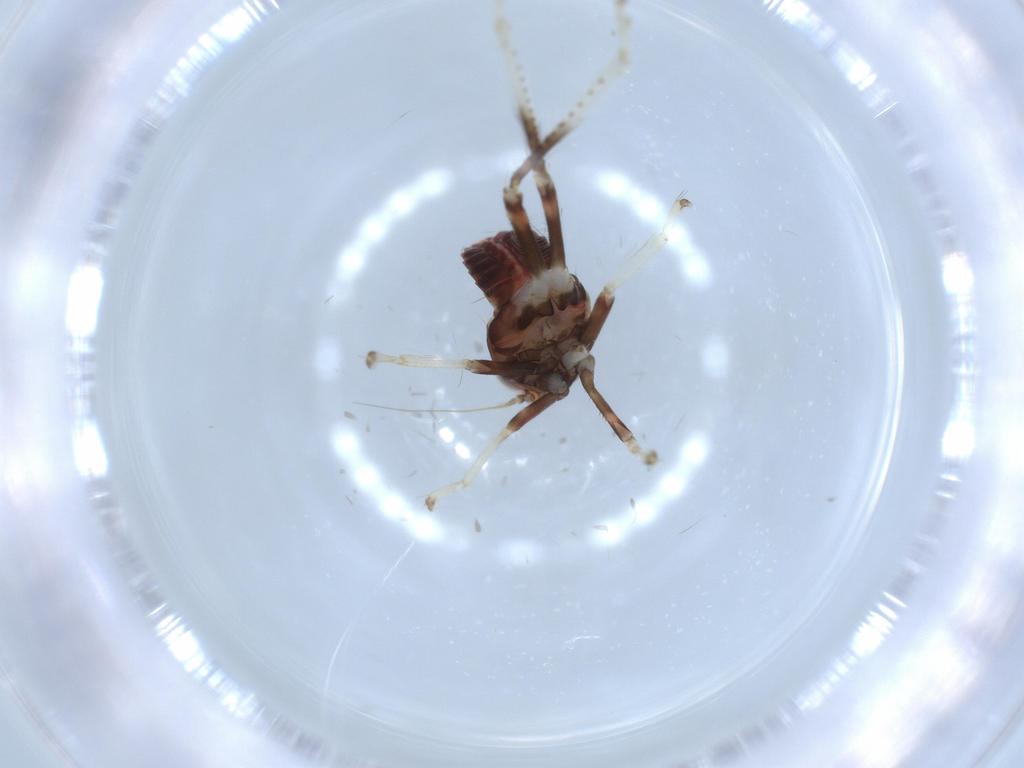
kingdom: Animalia
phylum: Arthropoda
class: Insecta
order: Hemiptera
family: Cicadellidae
